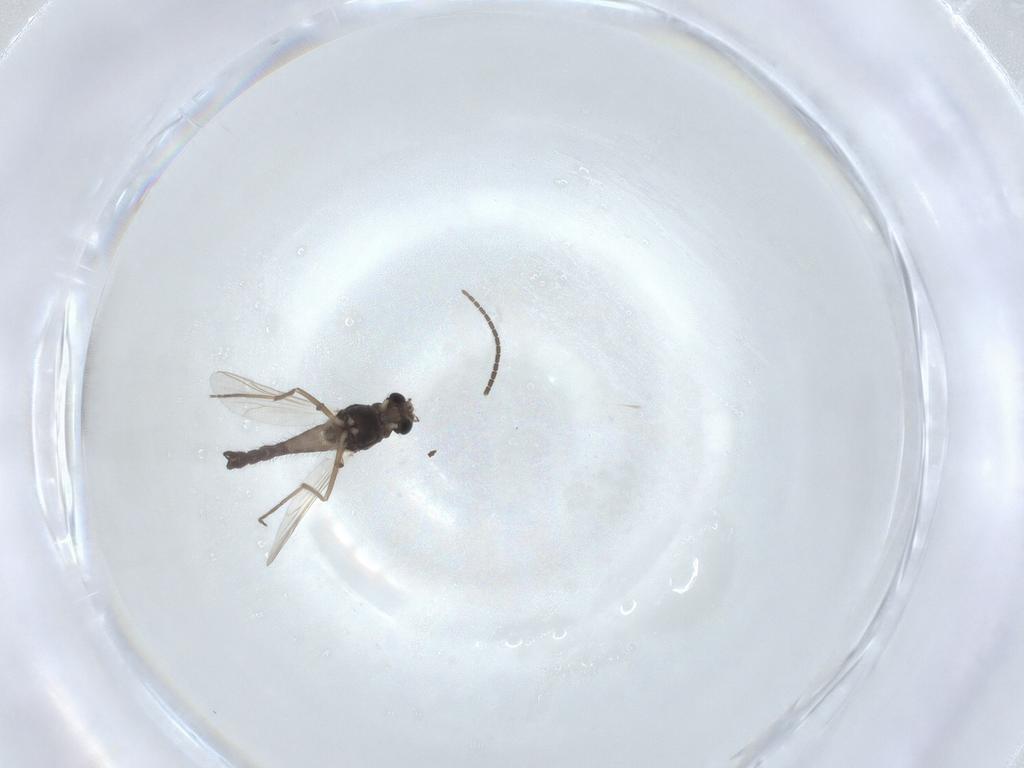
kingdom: Animalia
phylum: Arthropoda
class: Insecta
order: Diptera
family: Chironomidae
